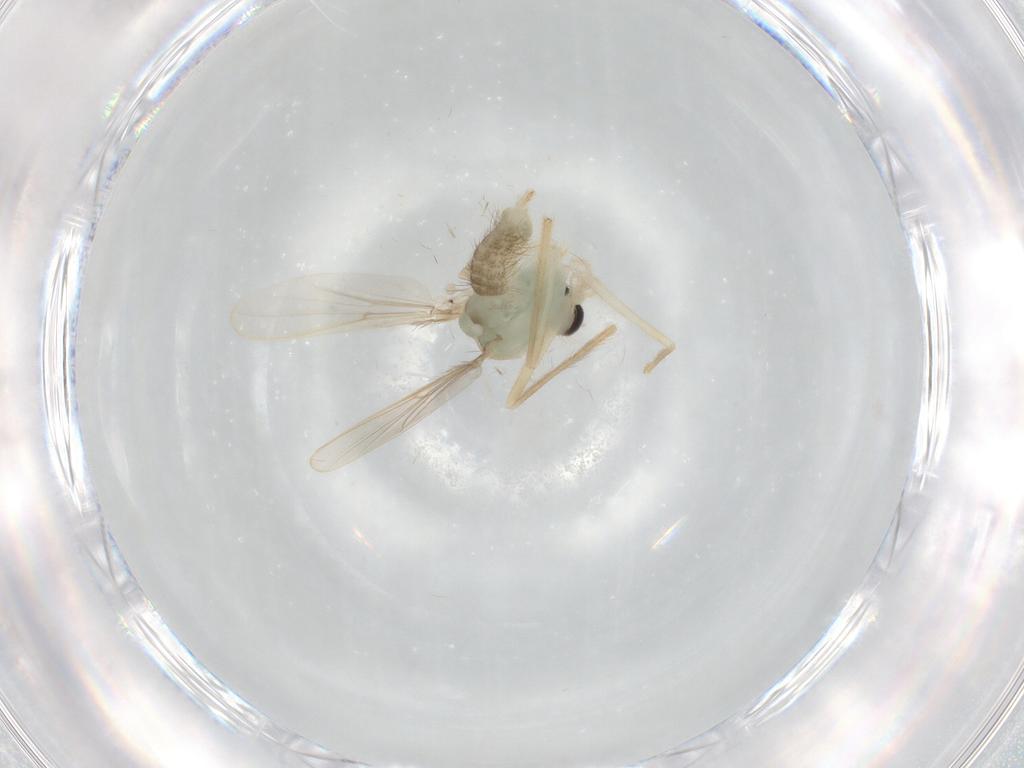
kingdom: Animalia
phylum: Arthropoda
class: Insecta
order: Diptera
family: Chironomidae
